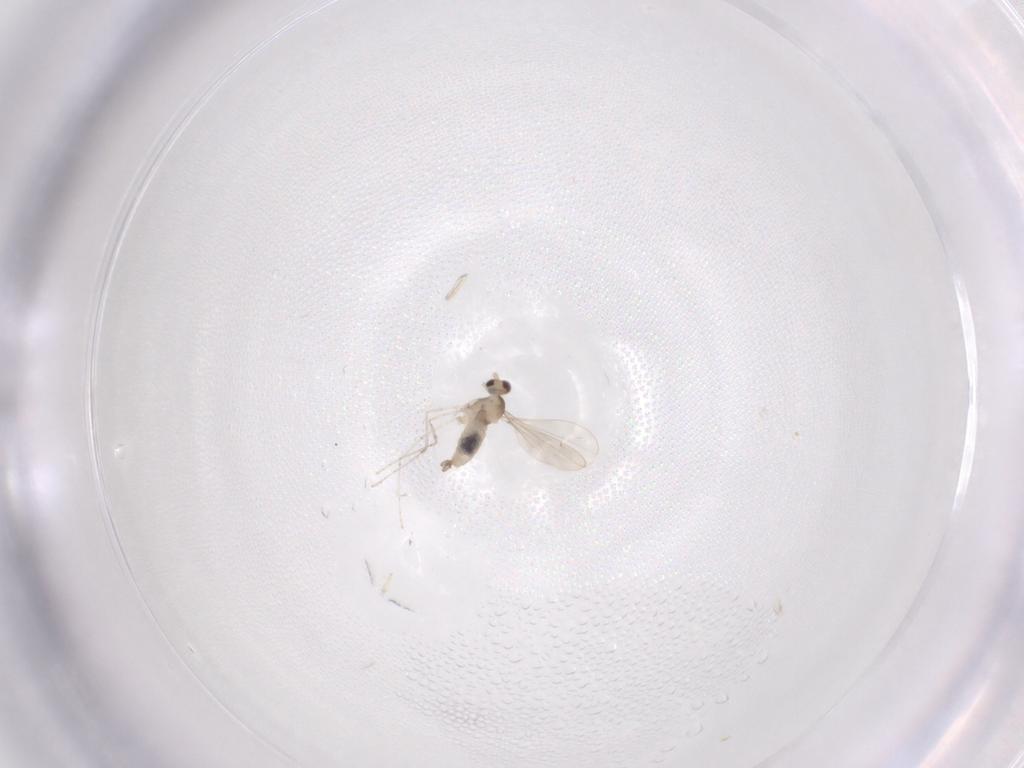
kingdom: Animalia
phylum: Arthropoda
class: Insecta
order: Diptera
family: Cecidomyiidae
